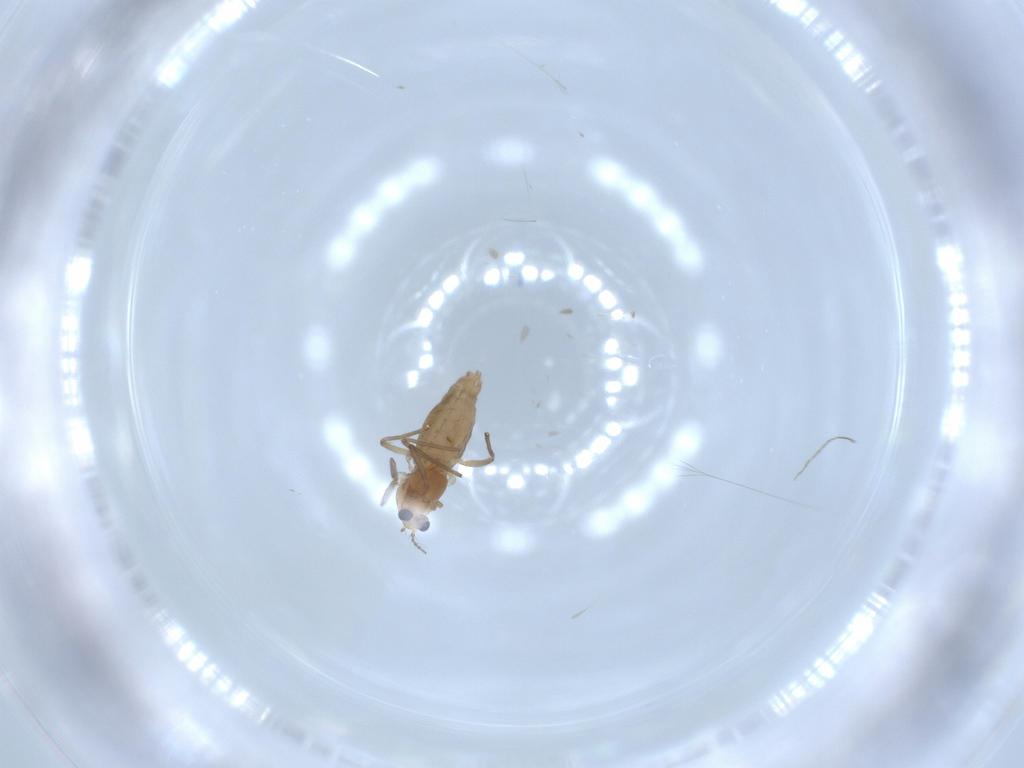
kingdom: Animalia
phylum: Arthropoda
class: Insecta
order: Diptera
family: Chironomidae
